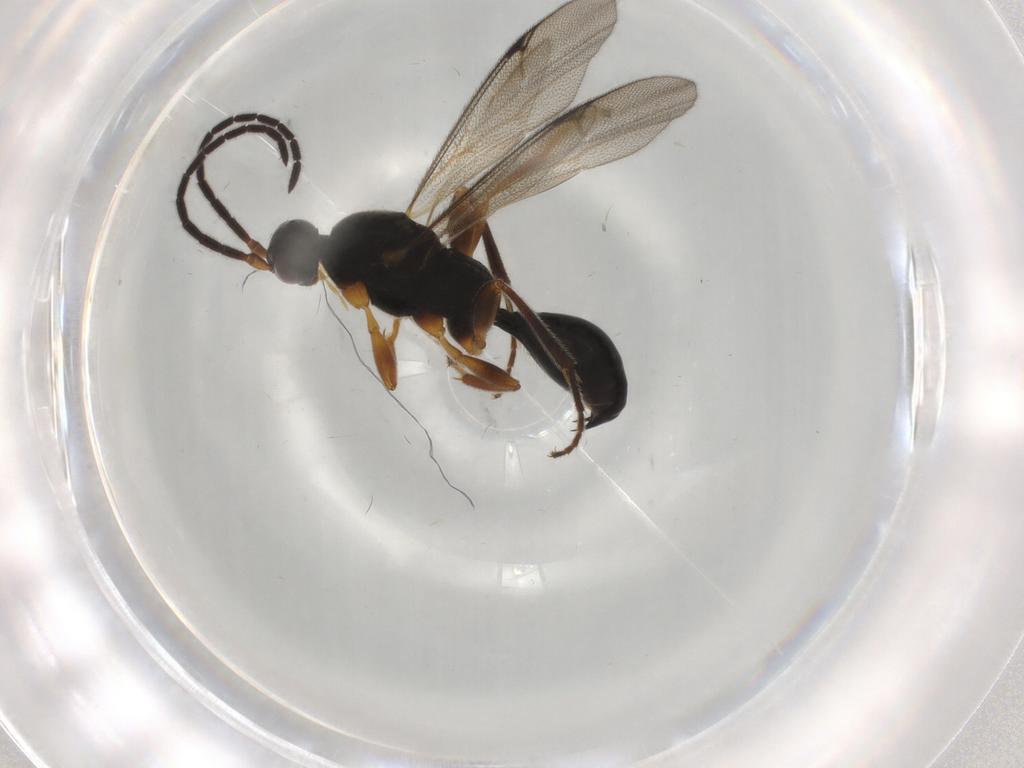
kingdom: Animalia
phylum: Arthropoda
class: Insecta
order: Hymenoptera
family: Proctotrupidae
